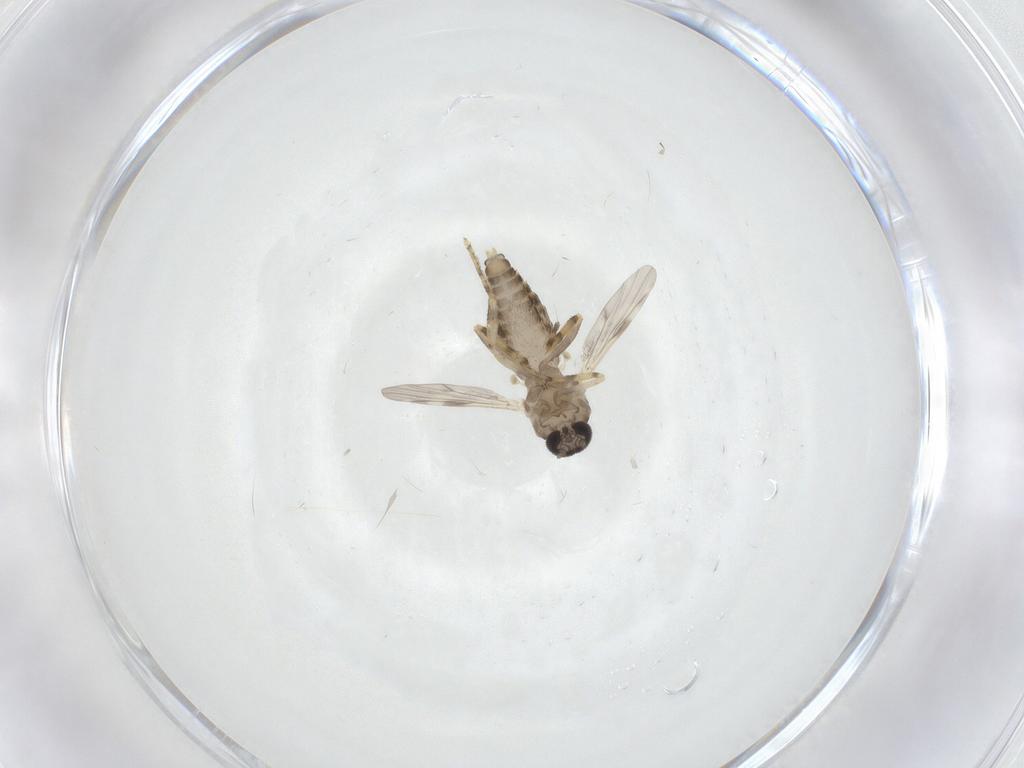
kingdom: Animalia
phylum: Arthropoda
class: Insecta
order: Diptera
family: Ceratopogonidae
